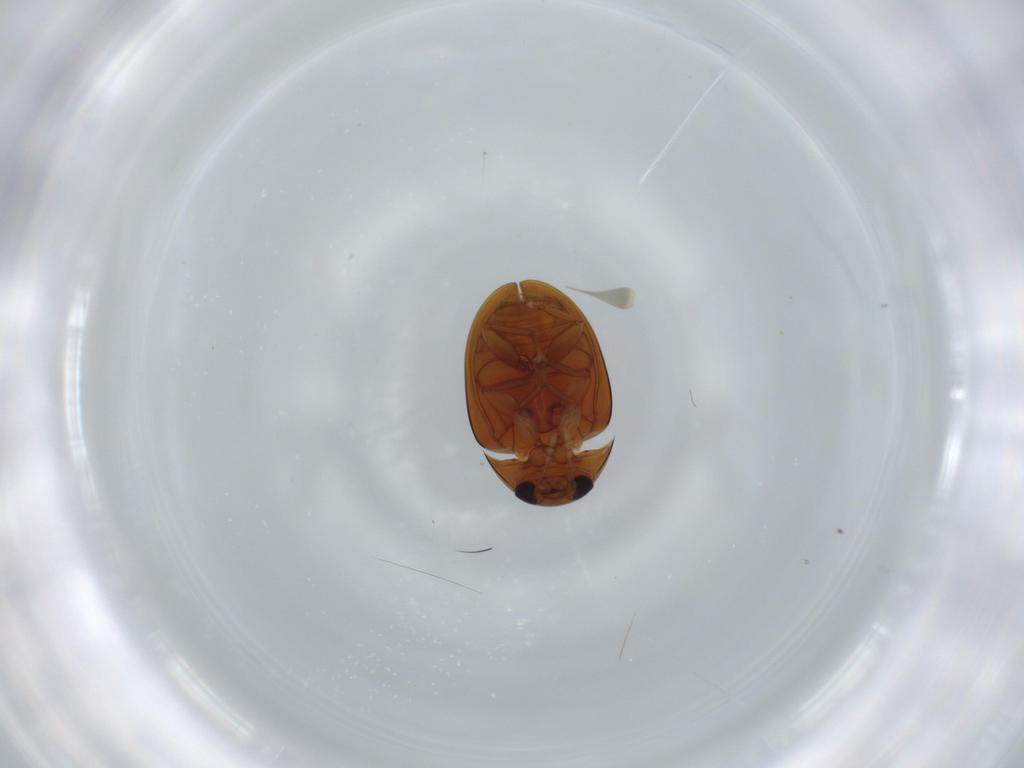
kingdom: Animalia
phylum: Arthropoda
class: Insecta
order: Coleoptera
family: Phalacridae
